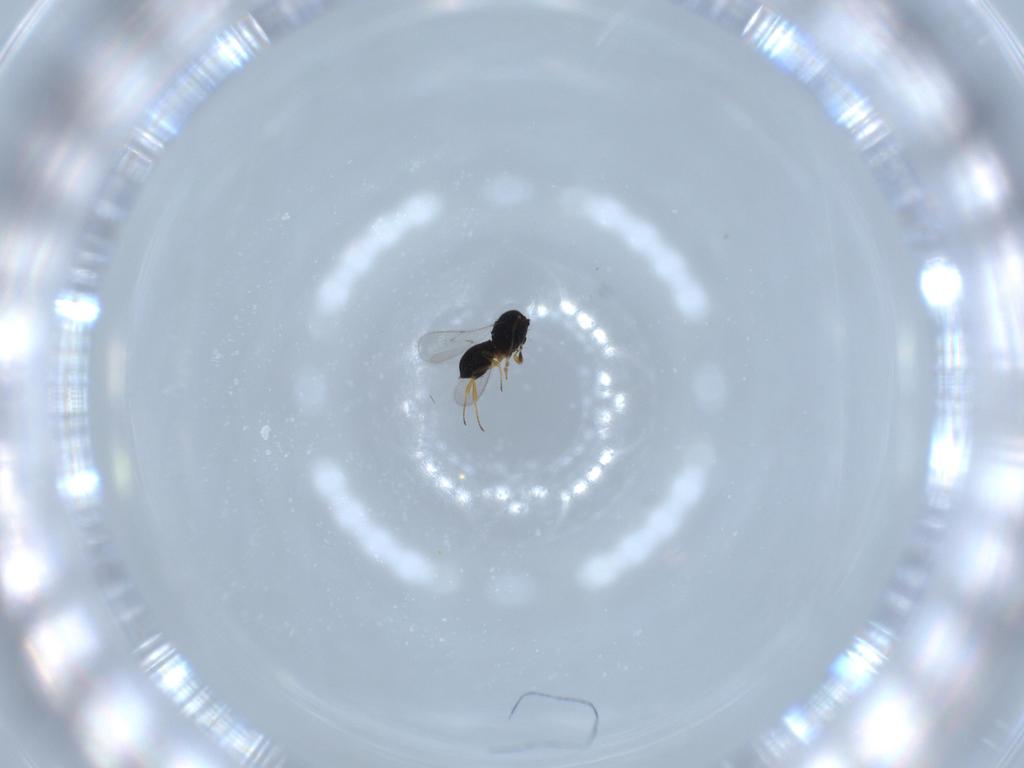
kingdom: Animalia
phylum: Arthropoda
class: Insecta
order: Hymenoptera
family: Scelionidae
